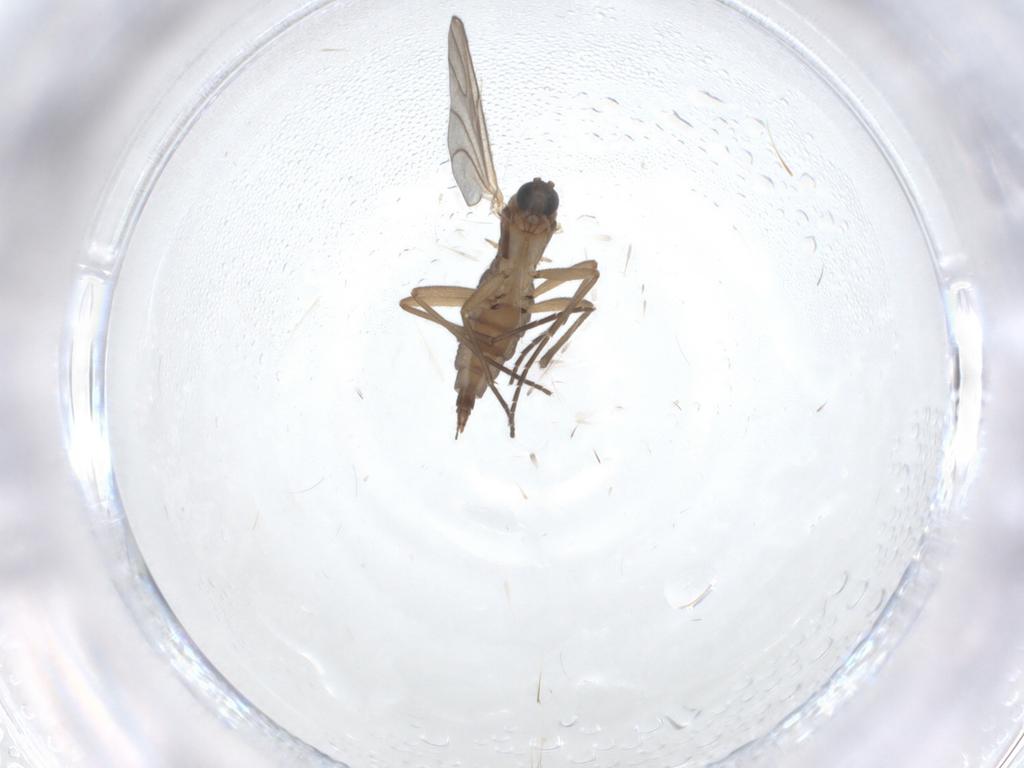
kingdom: Animalia
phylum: Arthropoda
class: Insecta
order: Diptera
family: Sciaridae
